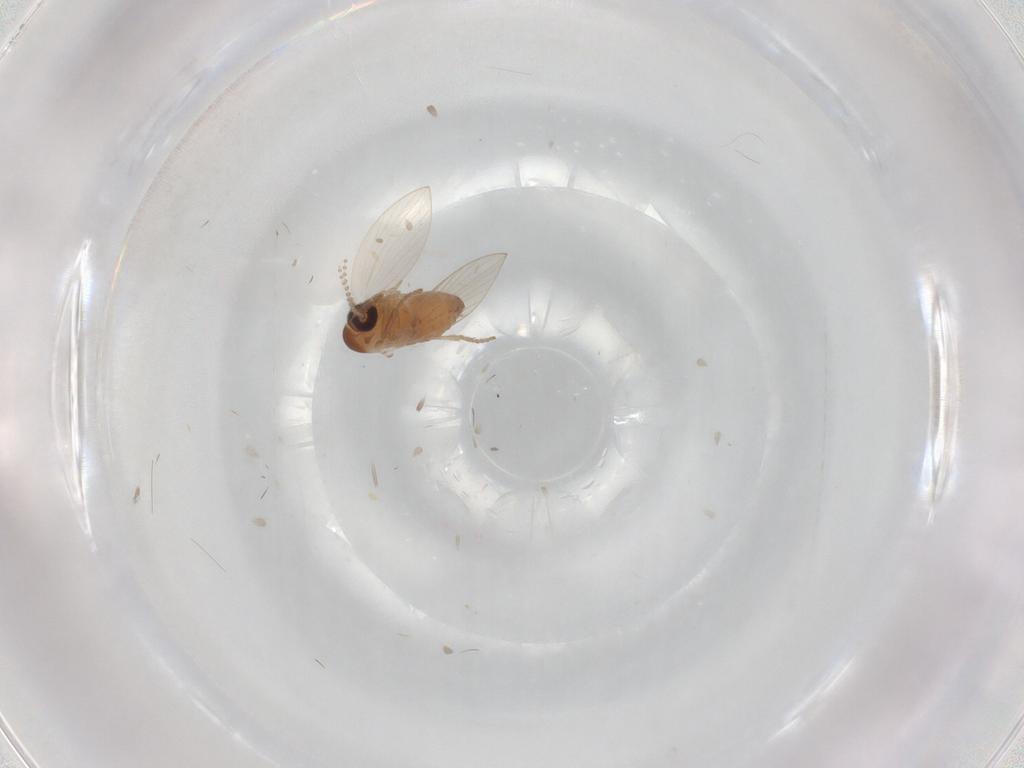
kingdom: Animalia
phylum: Arthropoda
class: Insecta
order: Diptera
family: Psychodidae
